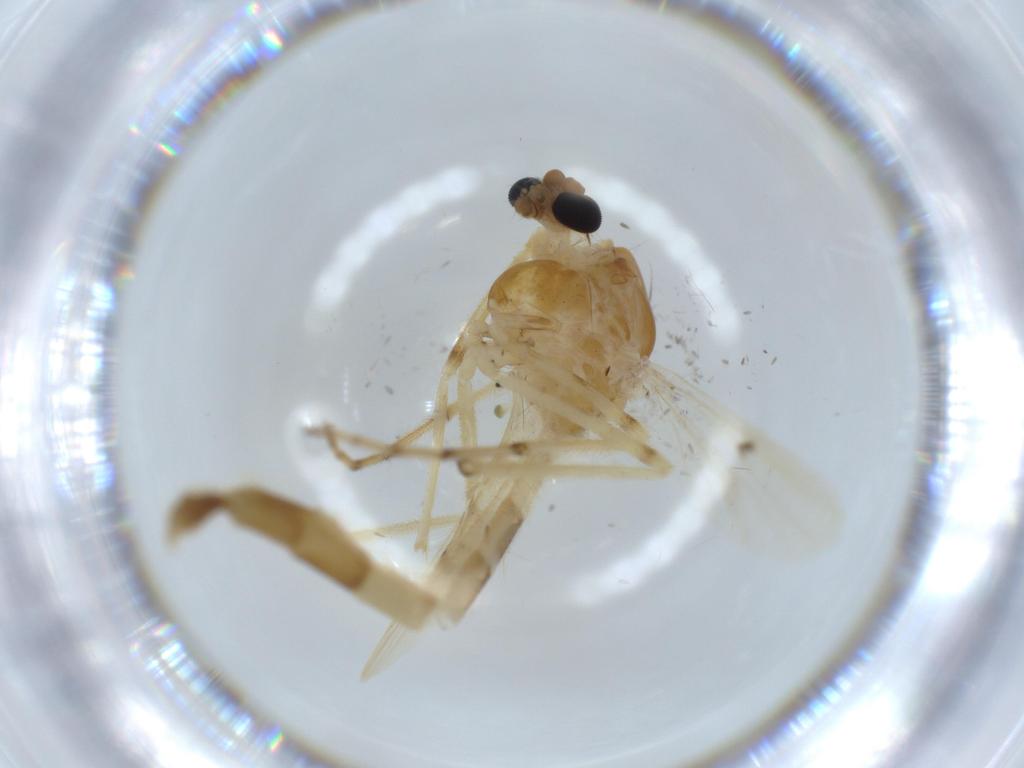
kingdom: Animalia
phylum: Arthropoda
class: Insecta
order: Diptera
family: Chironomidae
